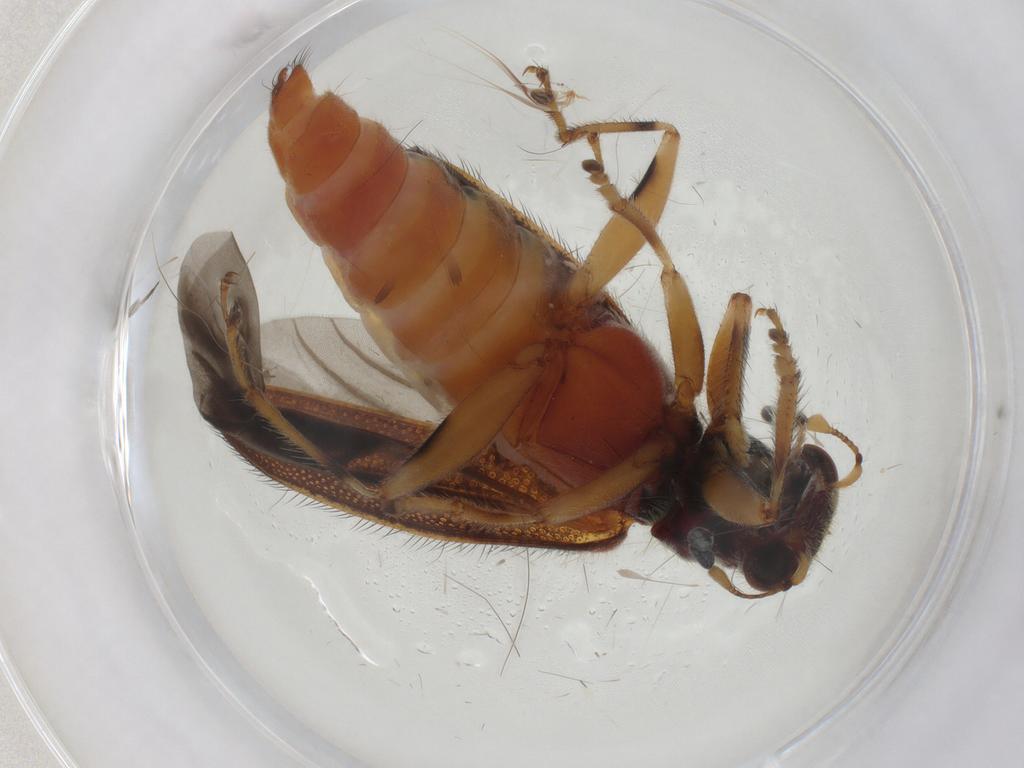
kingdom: Animalia
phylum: Arthropoda
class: Insecta
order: Coleoptera
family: Coccinellidae
